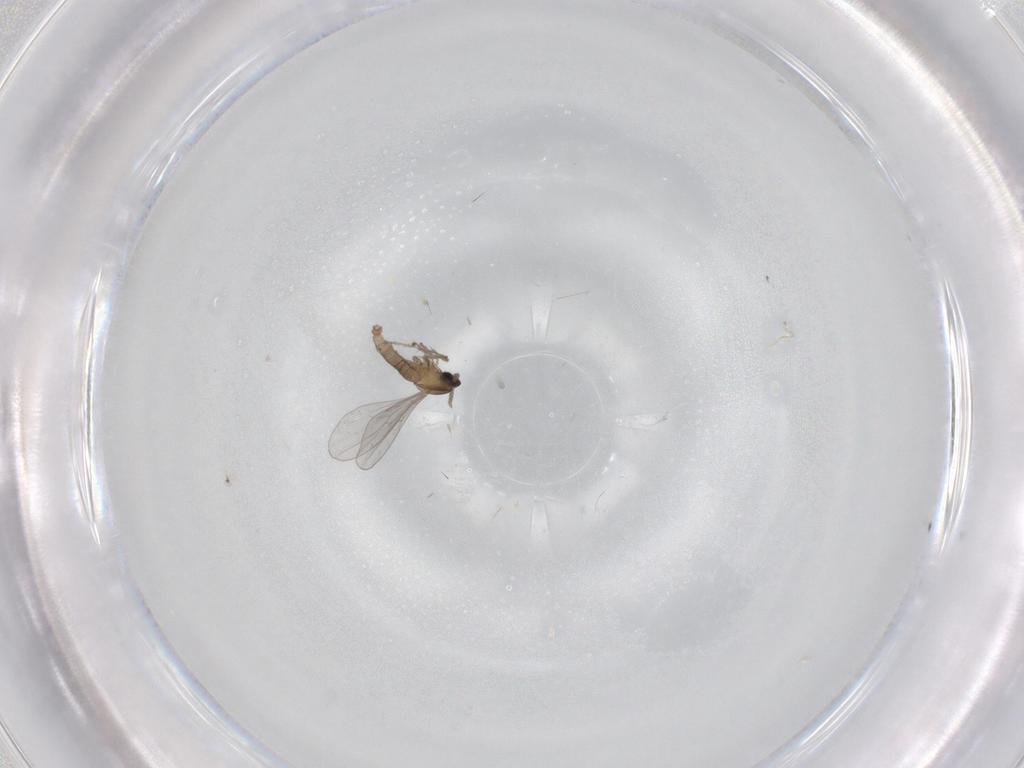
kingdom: Animalia
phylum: Arthropoda
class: Insecta
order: Diptera
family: Cecidomyiidae
